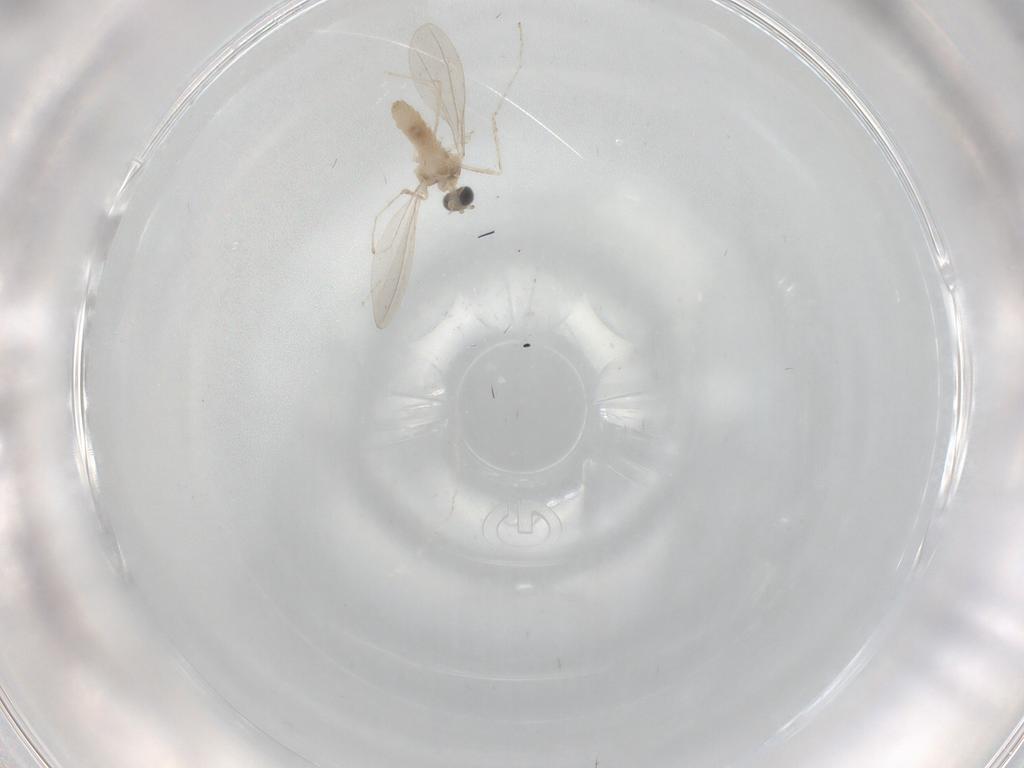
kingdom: Animalia
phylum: Arthropoda
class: Insecta
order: Diptera
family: Cecidomyiidae
